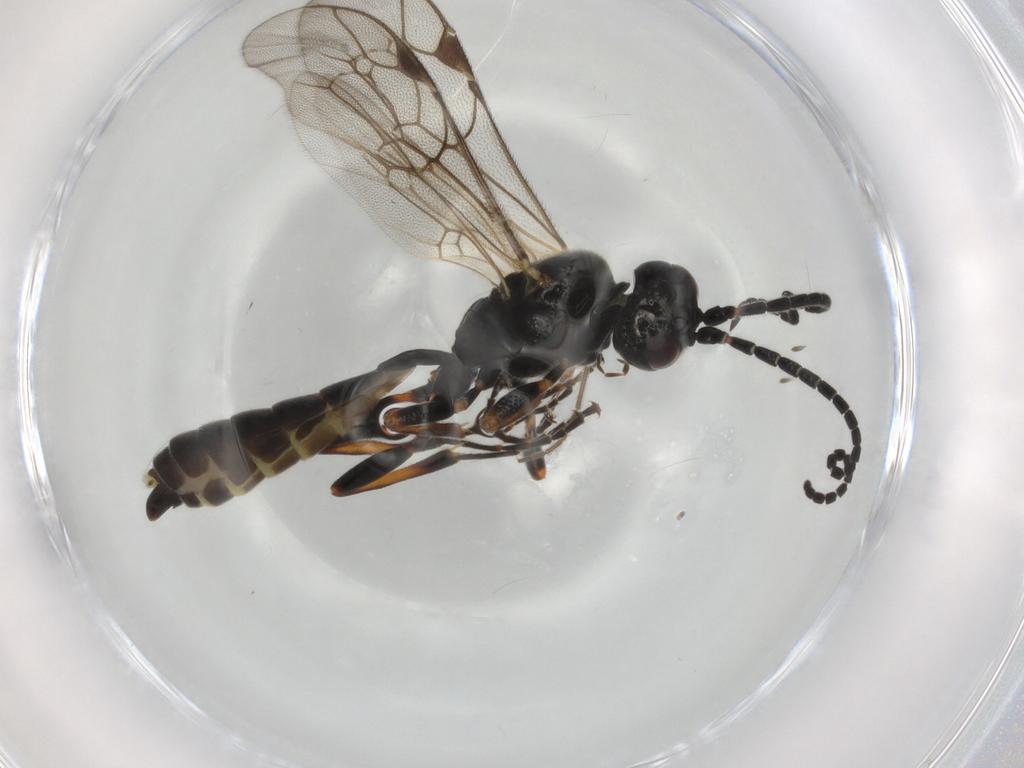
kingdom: Animalia
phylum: Arthropoda
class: Insecta
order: Hymenoptera
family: Ichneumonidae
